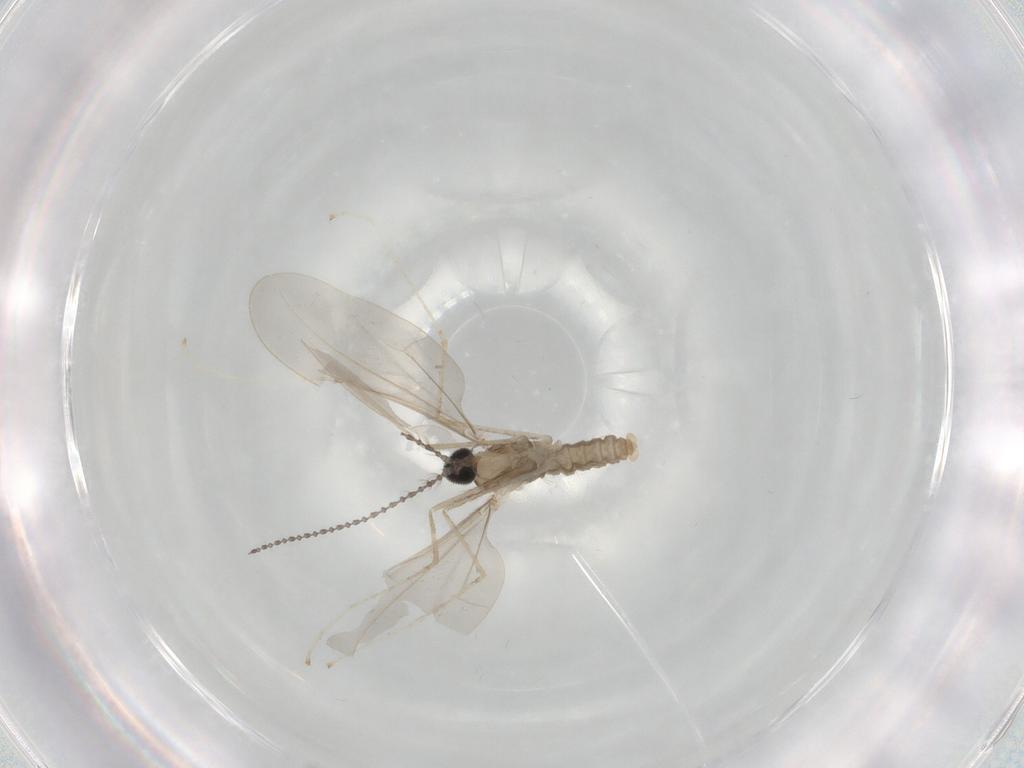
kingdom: Animalia
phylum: Arthropoda
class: Insecta
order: Diptera
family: Cecidomyiidae
